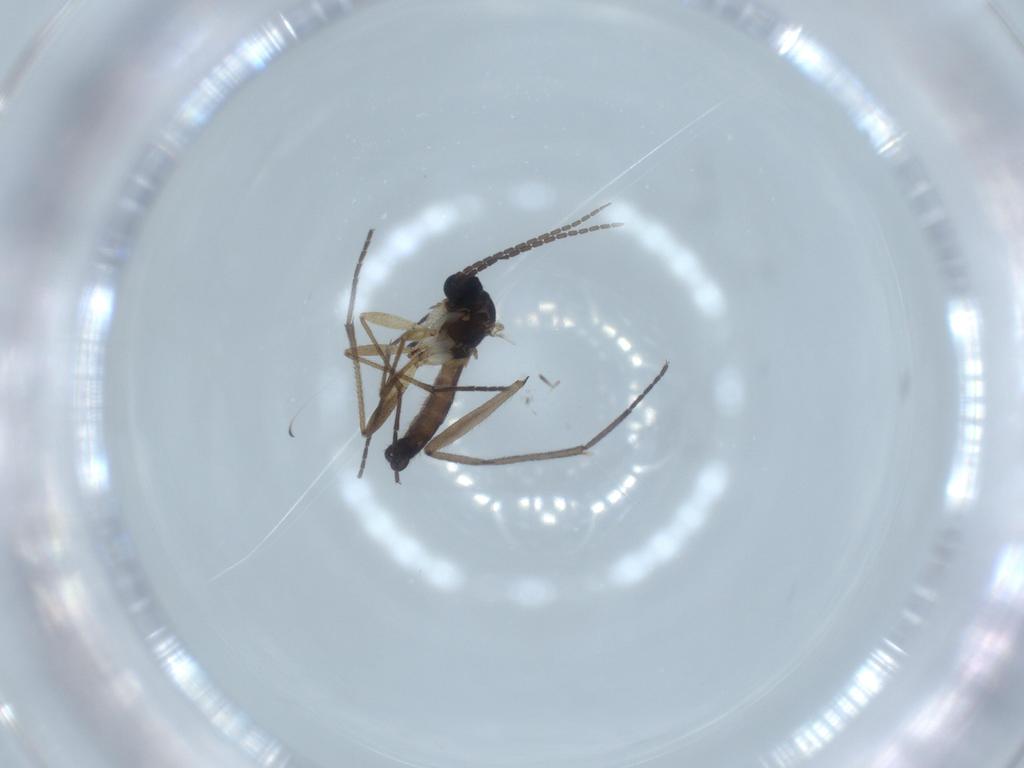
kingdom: Animalia
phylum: Arthropoda
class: Insecta
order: Diptera
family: Sciaridae
